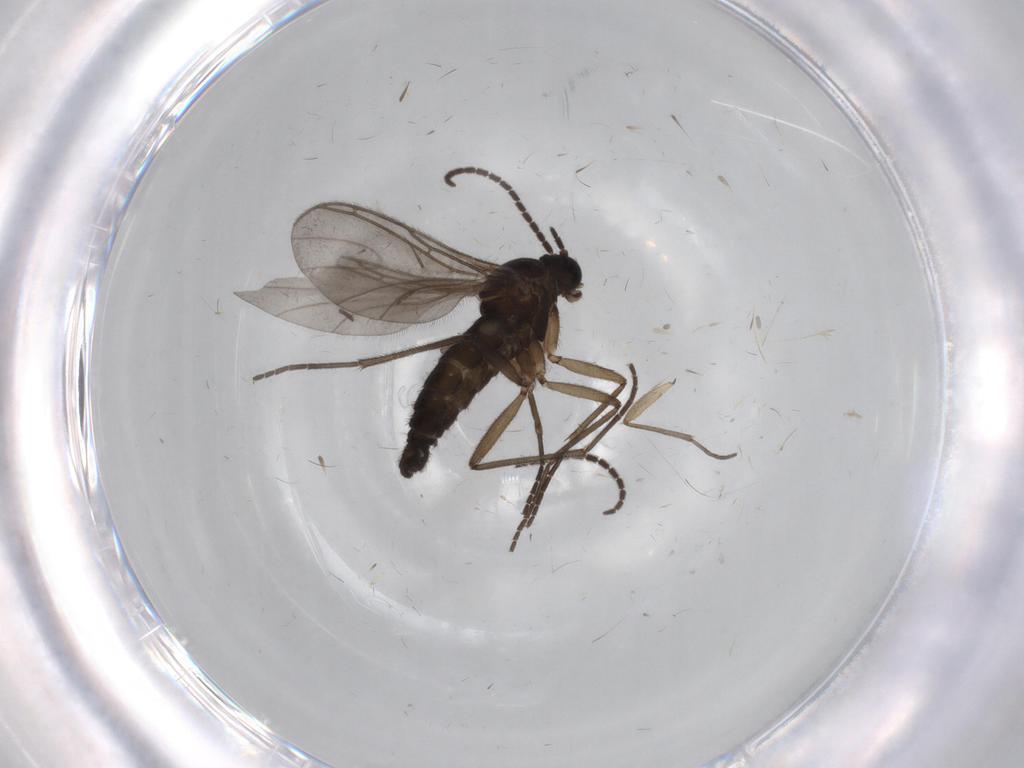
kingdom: Animalia
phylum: Arthropoda
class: Insecta
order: Diptera
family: Sciaridae
